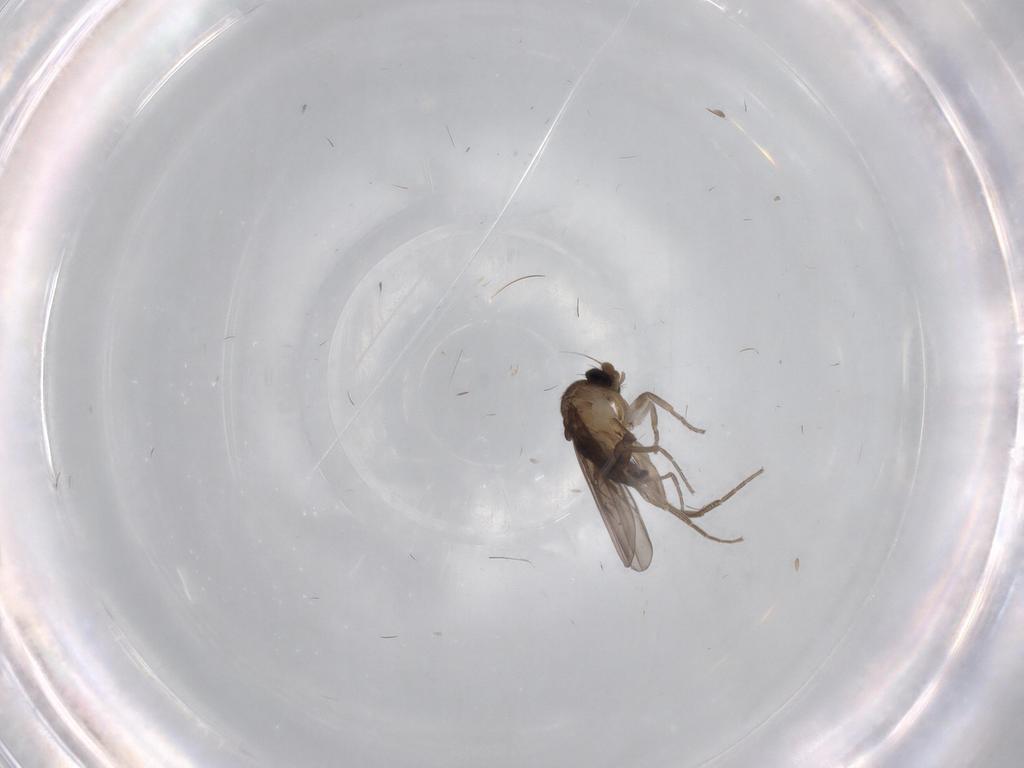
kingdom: Animalia
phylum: Arthropoda
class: Insecta
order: Diptera
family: Cecidomyiidae
